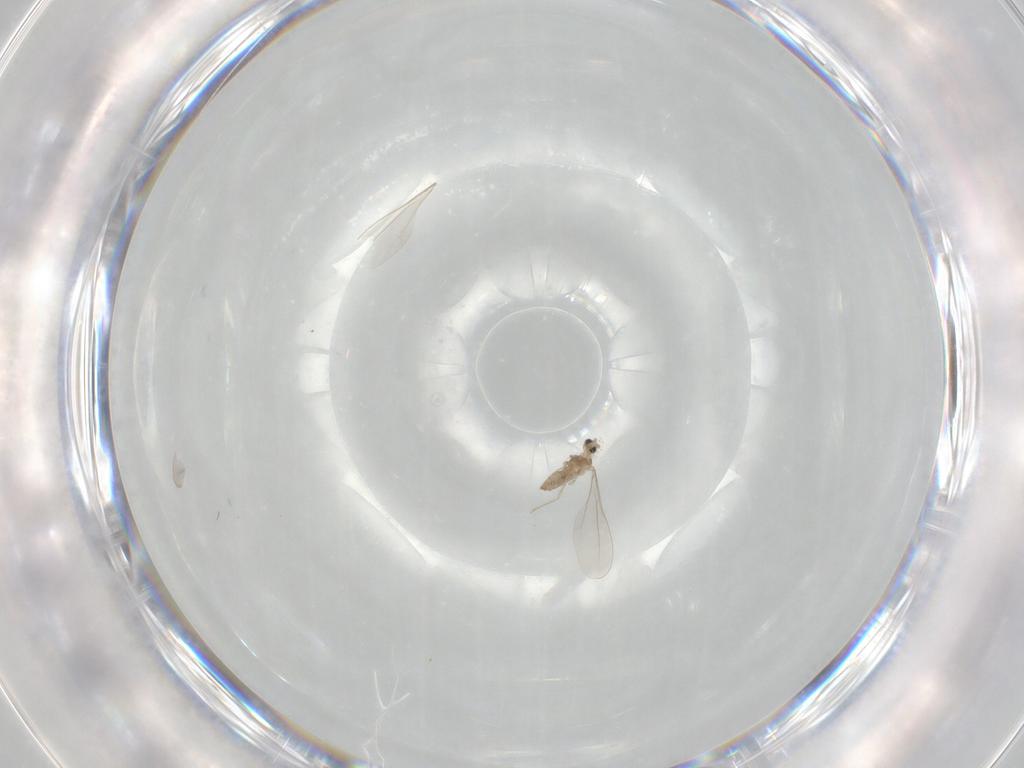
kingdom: Animalia
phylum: Arthropoda
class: Insecta
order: Diptera
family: Cecidomyiidae
